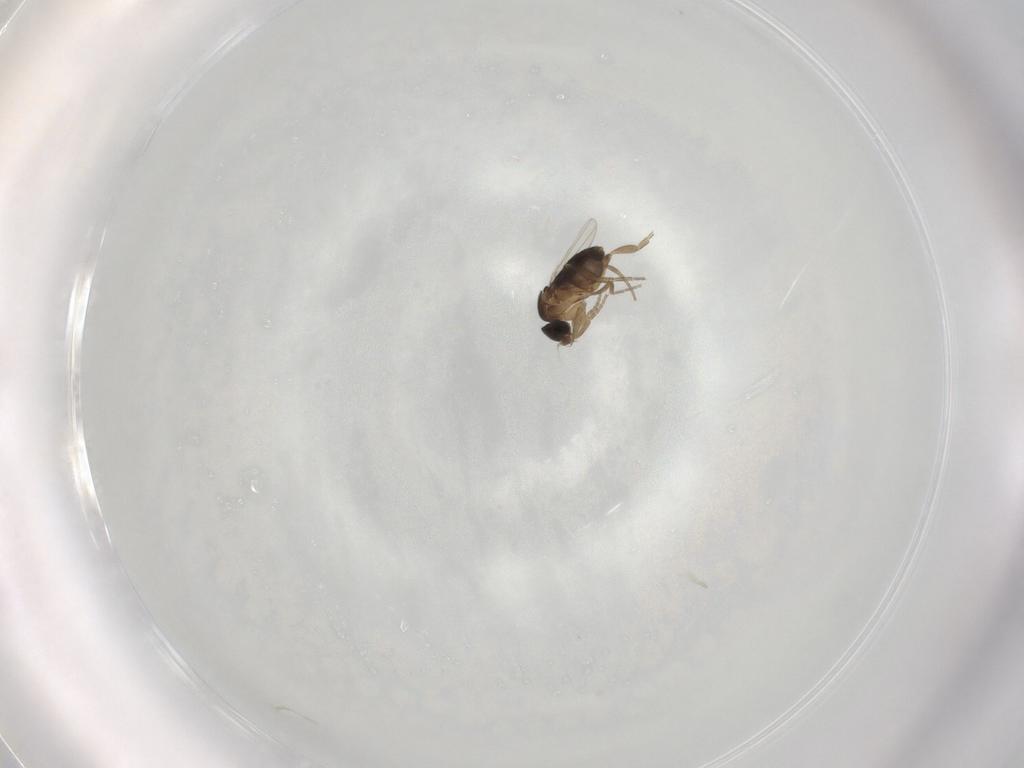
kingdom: Animalia
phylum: Arthropoda
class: Insecta
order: Diptera
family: Phoridae
